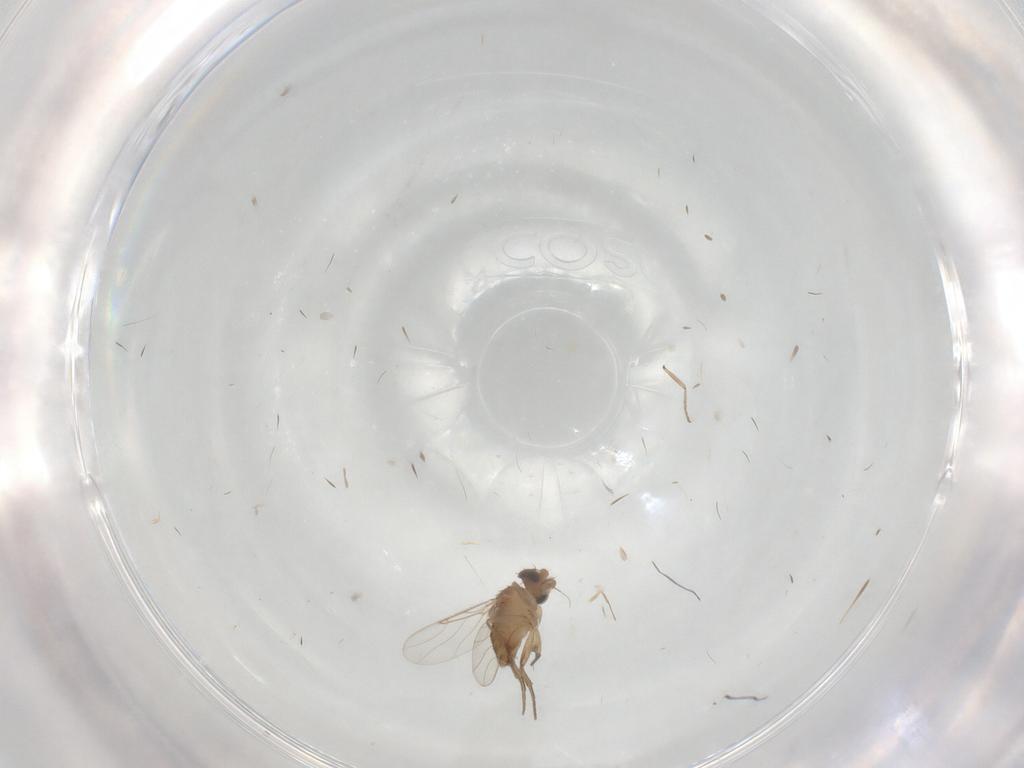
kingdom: Animalia
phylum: Arthropoda
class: Insecta
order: Diptera
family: Phoridae
